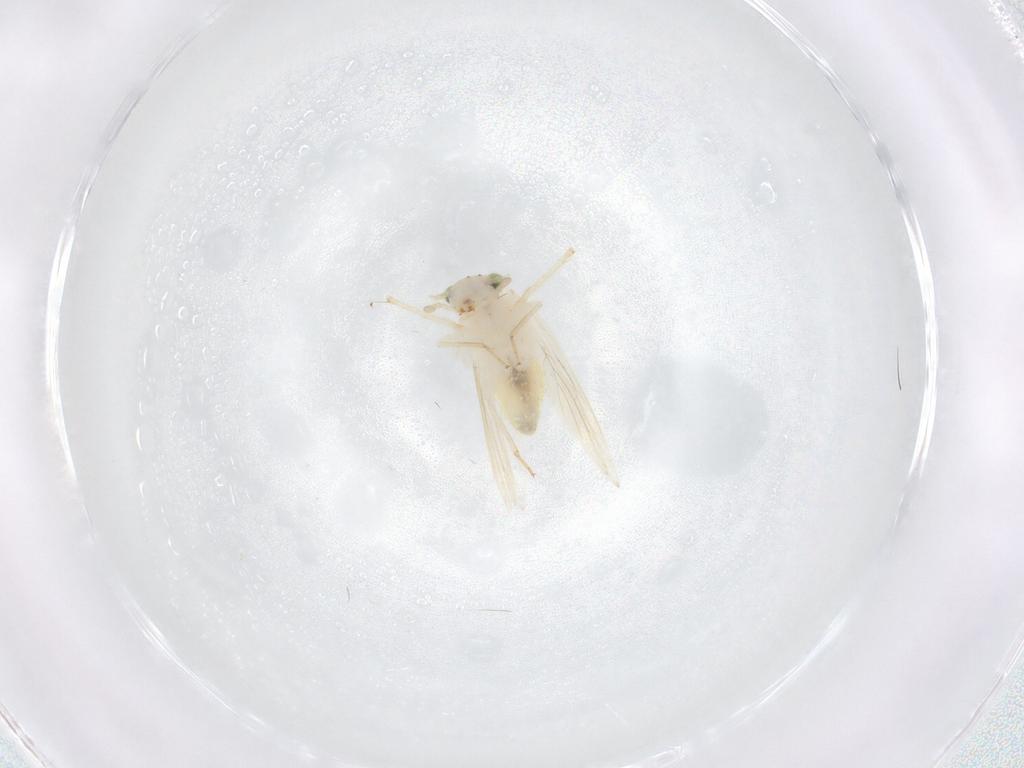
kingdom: Animalia
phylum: Arthropoda
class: Insecta
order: Psocodea
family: Lepidopsocidae
